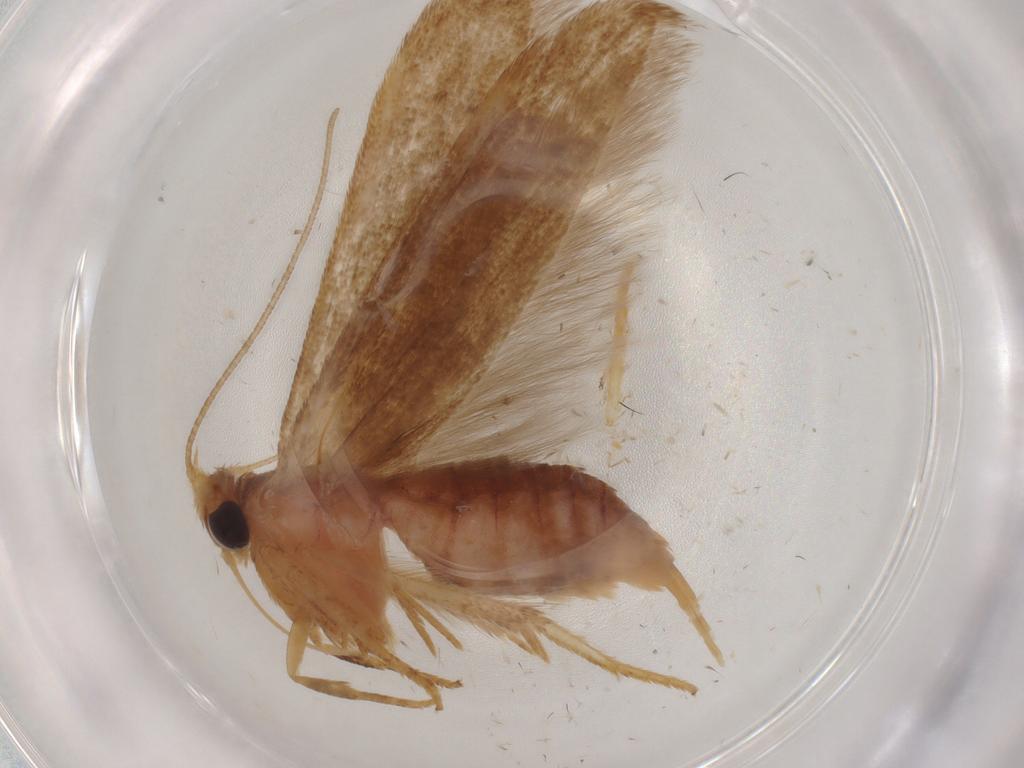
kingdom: Animalia
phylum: Arthropoda
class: Insecta
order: Lepidoptera
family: Blastobasidae
